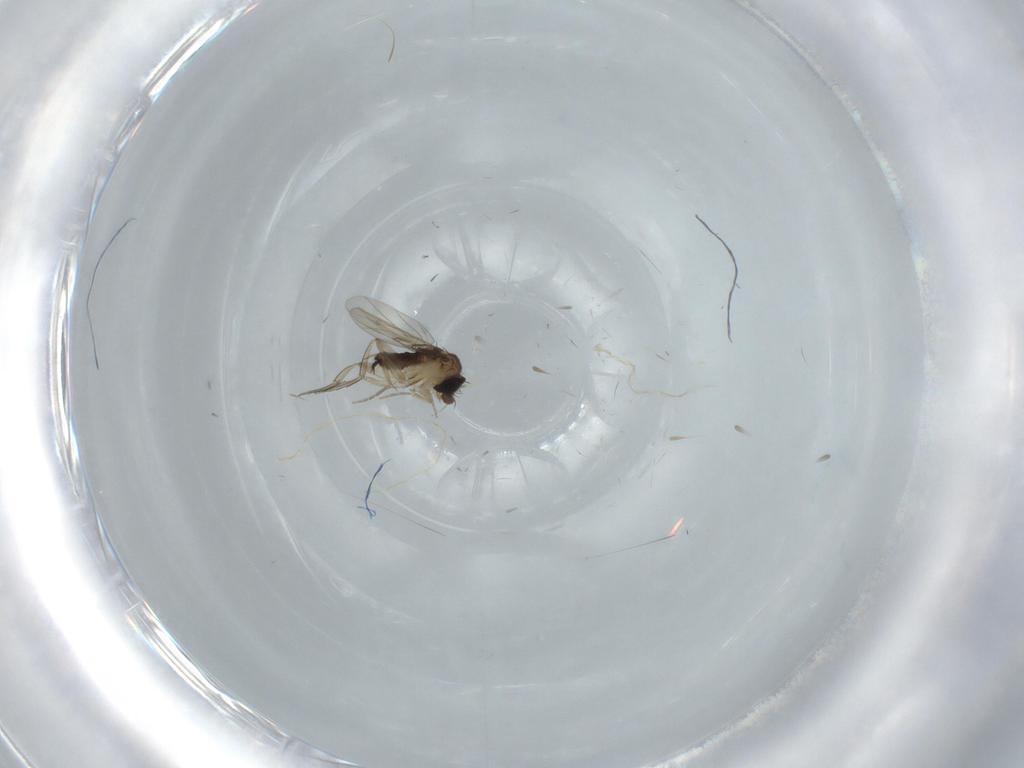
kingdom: Animalia
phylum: Arthropoda
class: Insecta
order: Diptera
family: Phoridae
